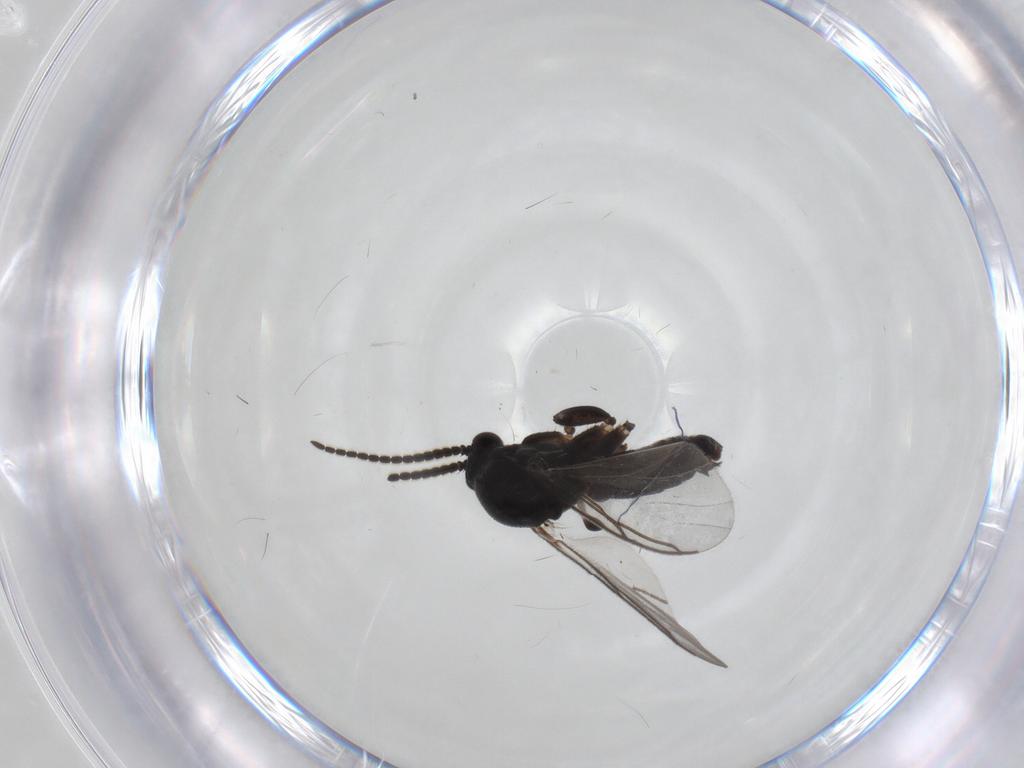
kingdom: Animalia
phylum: Arthropoda
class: Insecta
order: Diptera
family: Mycetophilidae
